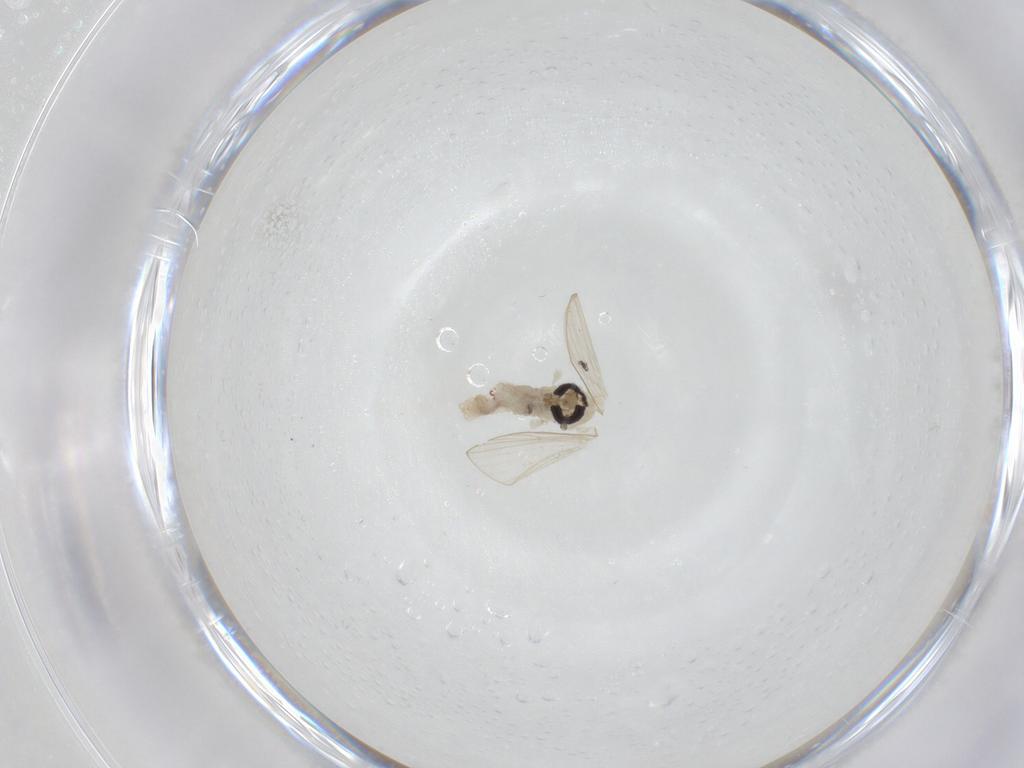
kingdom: Animalia
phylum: Arthropoda
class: Insecta
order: Diptera
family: Psychodidae
